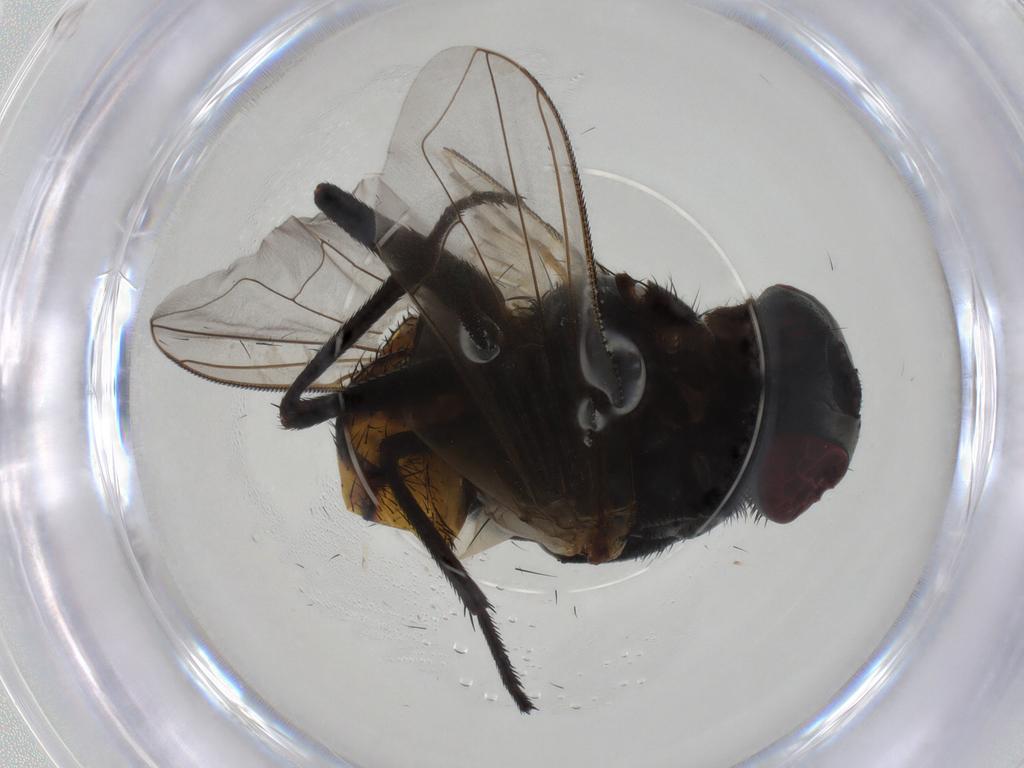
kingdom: Animalia
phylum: Arthropoda
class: Insecta
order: Diptera
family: Muscidae
